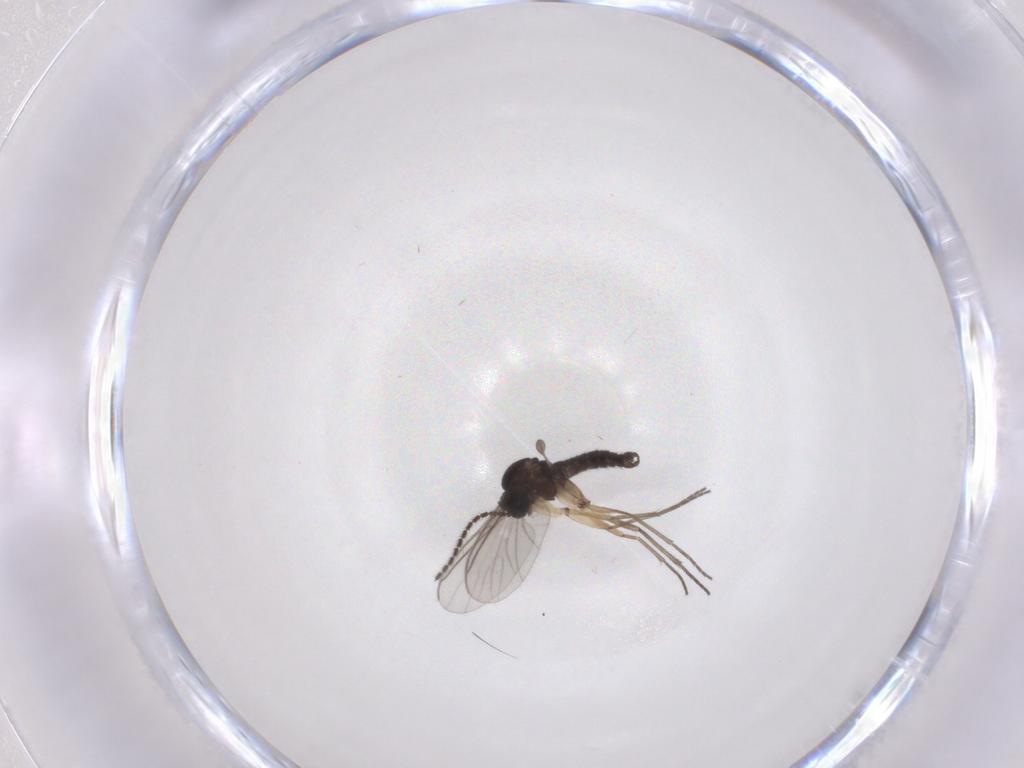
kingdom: Animalia
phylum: Arthropoda
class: Insecta
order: Diptera
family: Sciaridae
